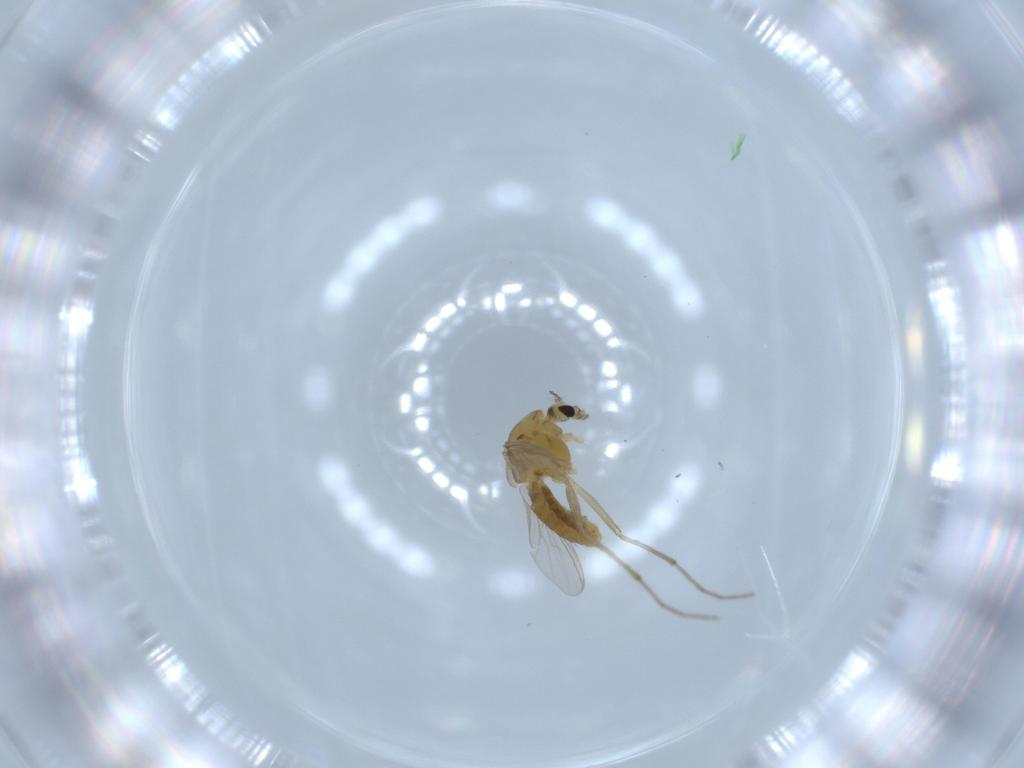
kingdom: Animalia
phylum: Arthropoda
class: Insecta
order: Diptera
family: Chironomidae
